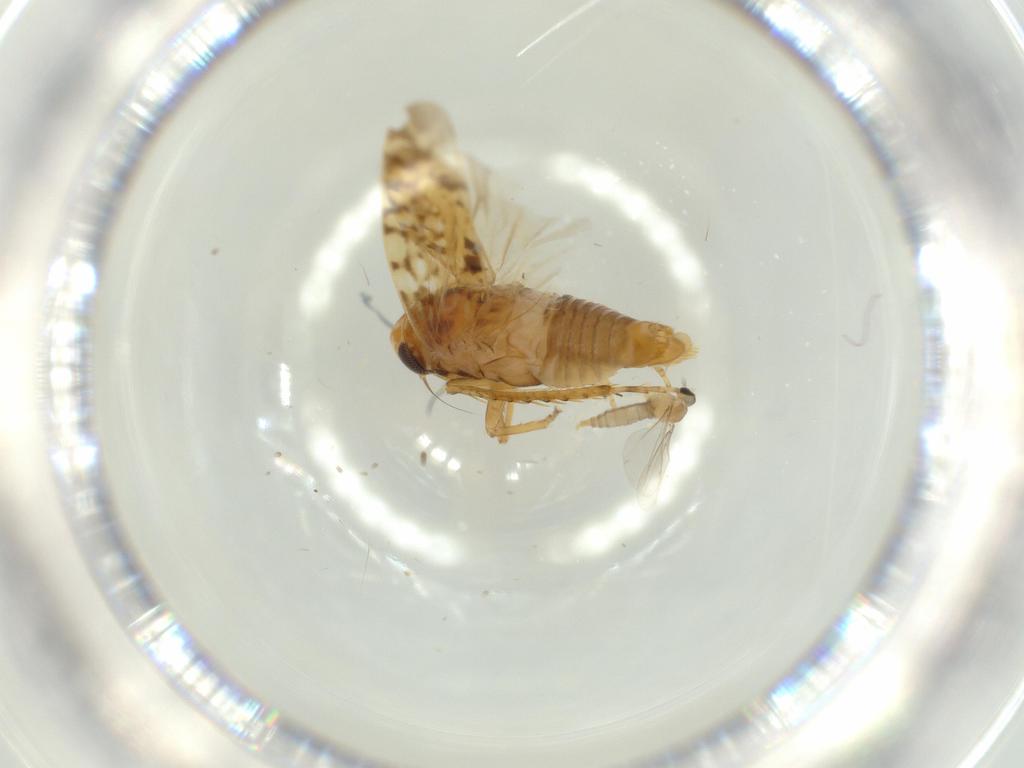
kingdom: Animalia
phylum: Arthropoda
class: Insecta
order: Diptera
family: Cecidomyiidae
